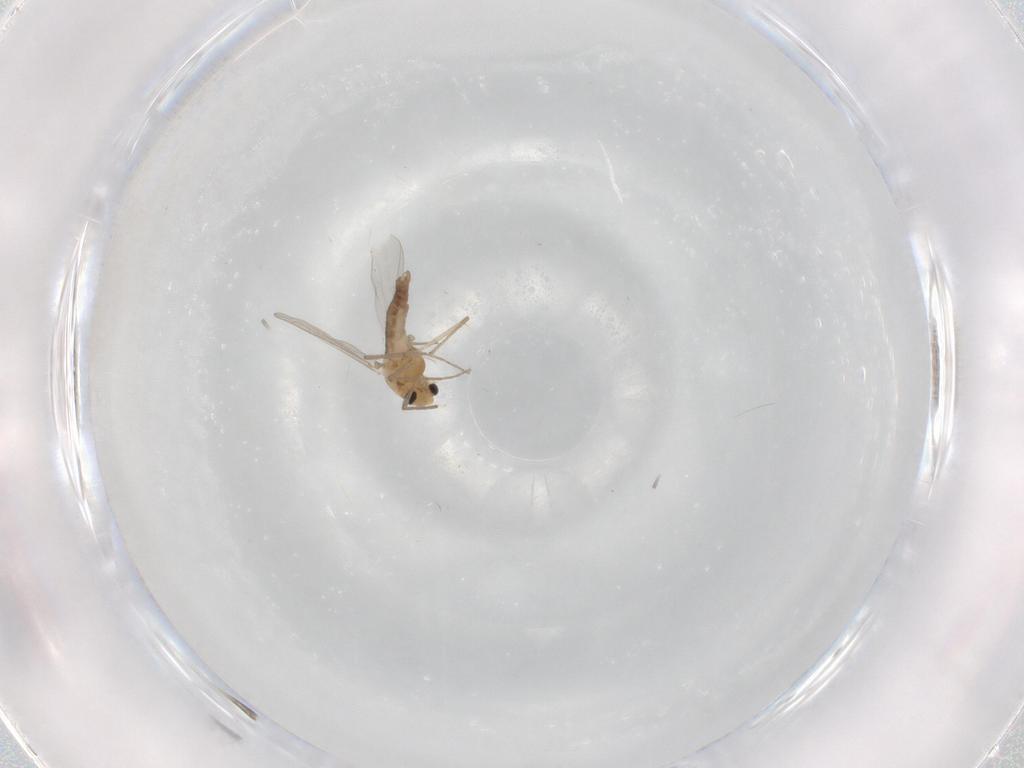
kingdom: Animalia
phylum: Arthropoda
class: Insecta
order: Diptera
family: Chironomidae
